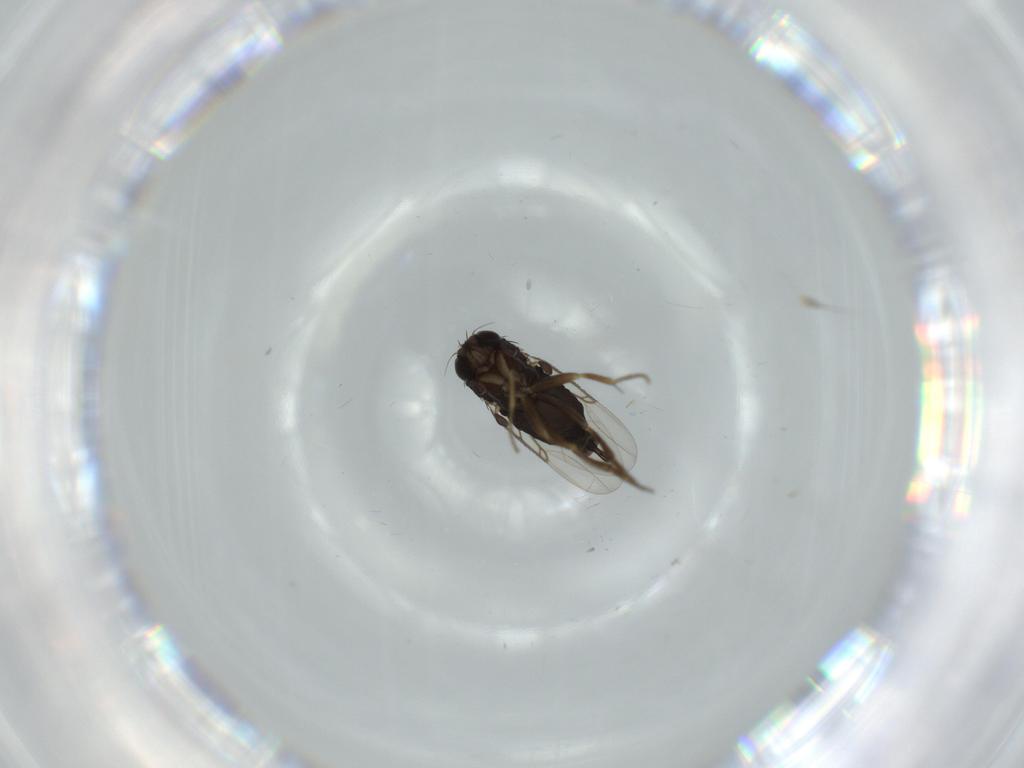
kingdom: Animalia
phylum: Arthropoda
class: Insecta
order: Diptera
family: Phoridae
